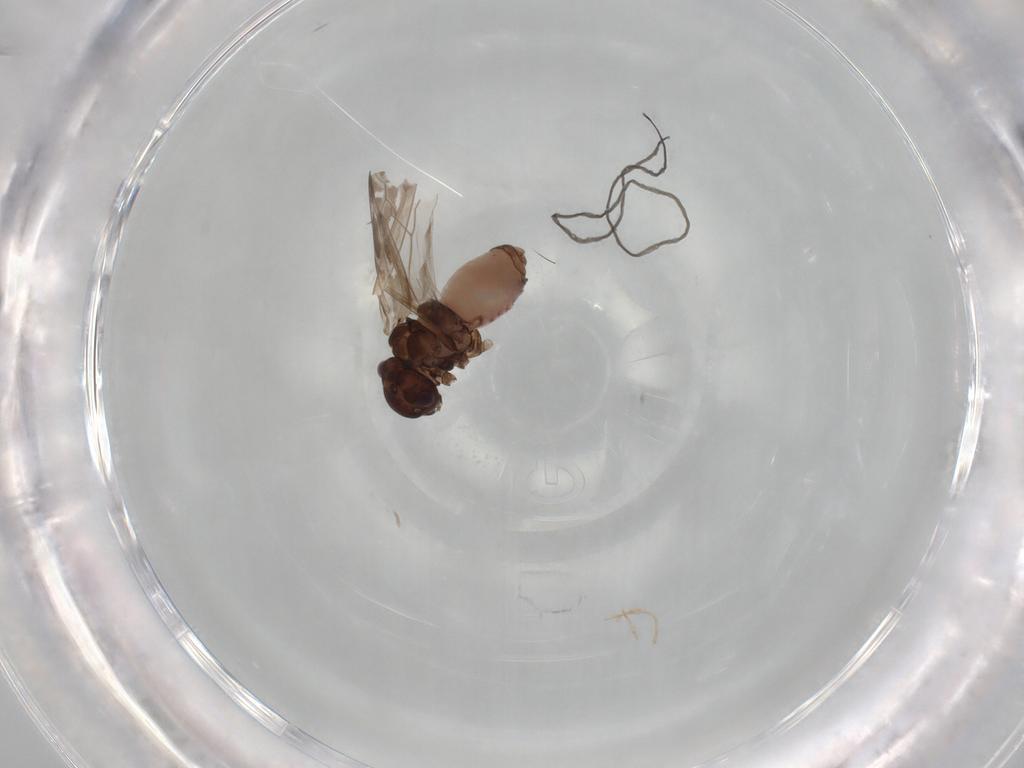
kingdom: Animalia
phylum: Arthropoda
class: Insecta
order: Psocodea
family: Peripsocidae
